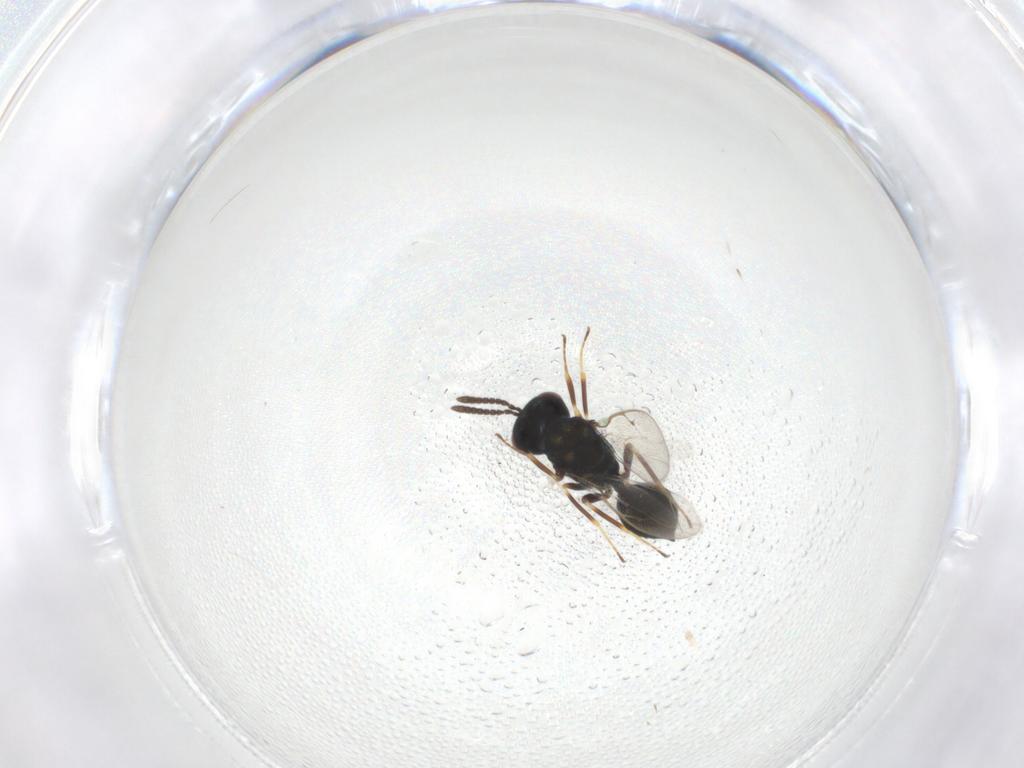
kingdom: Animalia
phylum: Arthropoda
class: Insecta
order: Hymenoptera
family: Pteromalidae
